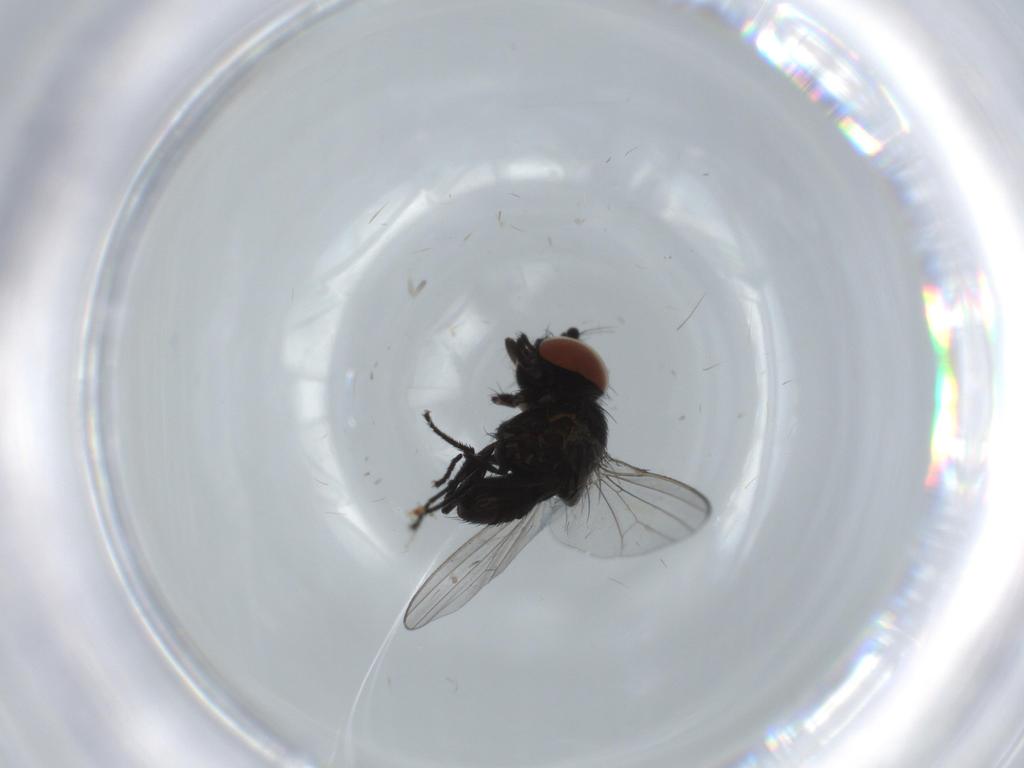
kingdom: Animalia
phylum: Arthropoda
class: Insecta
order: Diptera
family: Milichiidae
